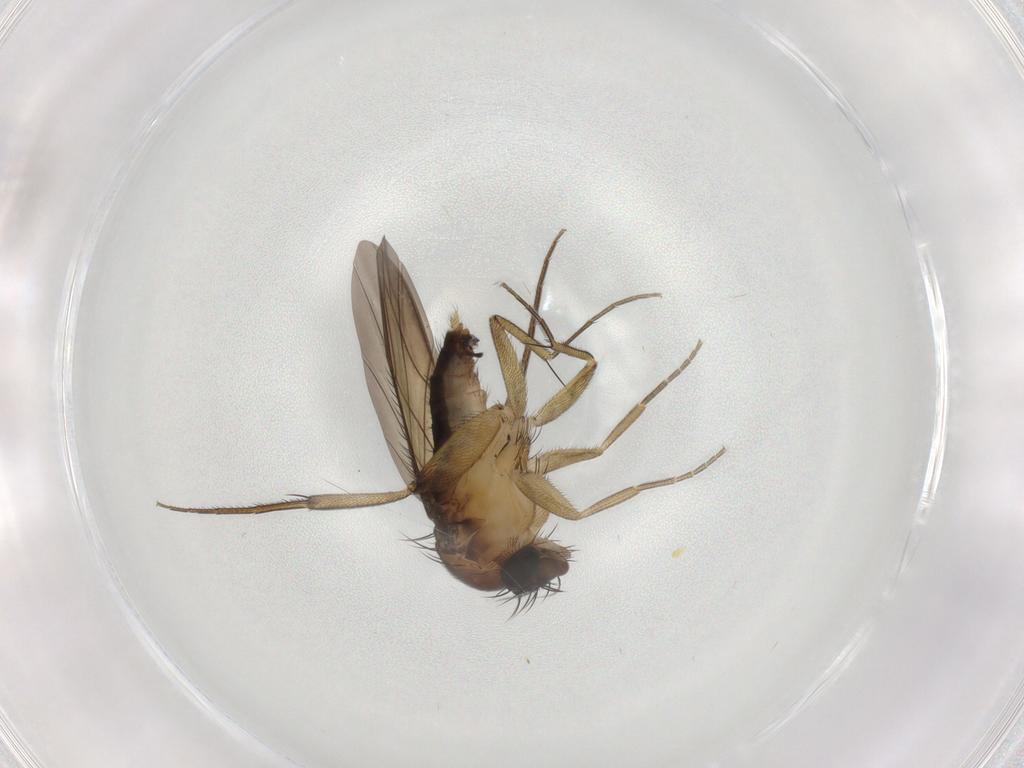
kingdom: Animalia
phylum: Arthropoda
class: Insecta
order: Diptera
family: Phoridae
